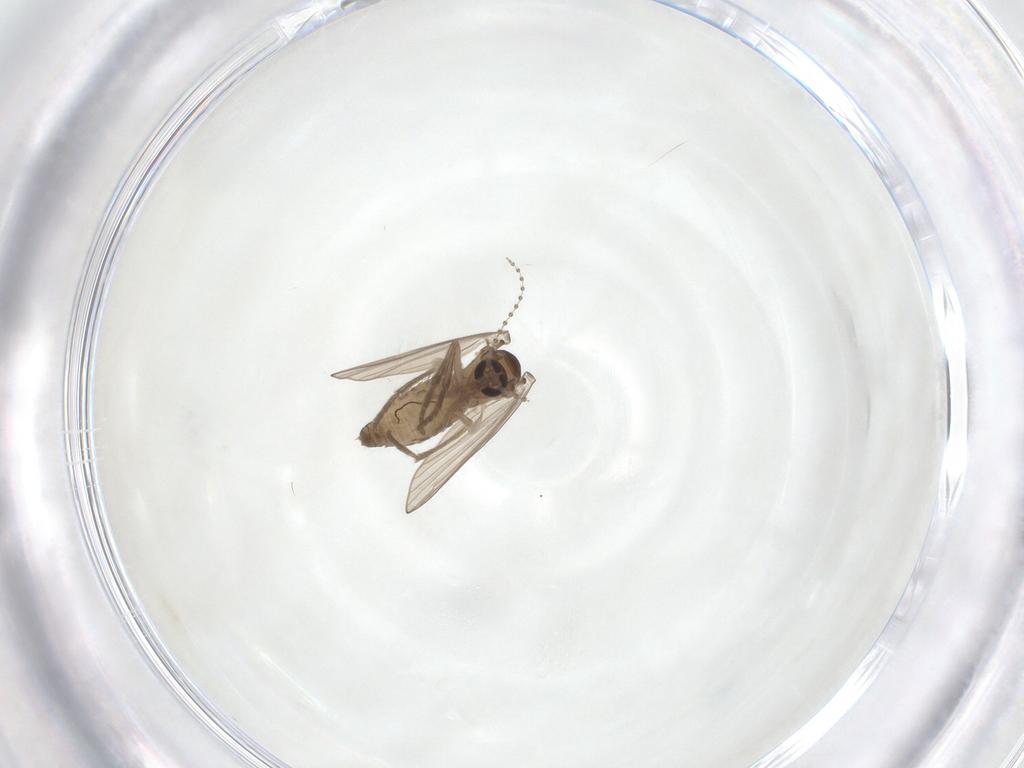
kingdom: Animalia
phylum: Arthropoda
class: Insecta
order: Diptera
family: Psychodidae
